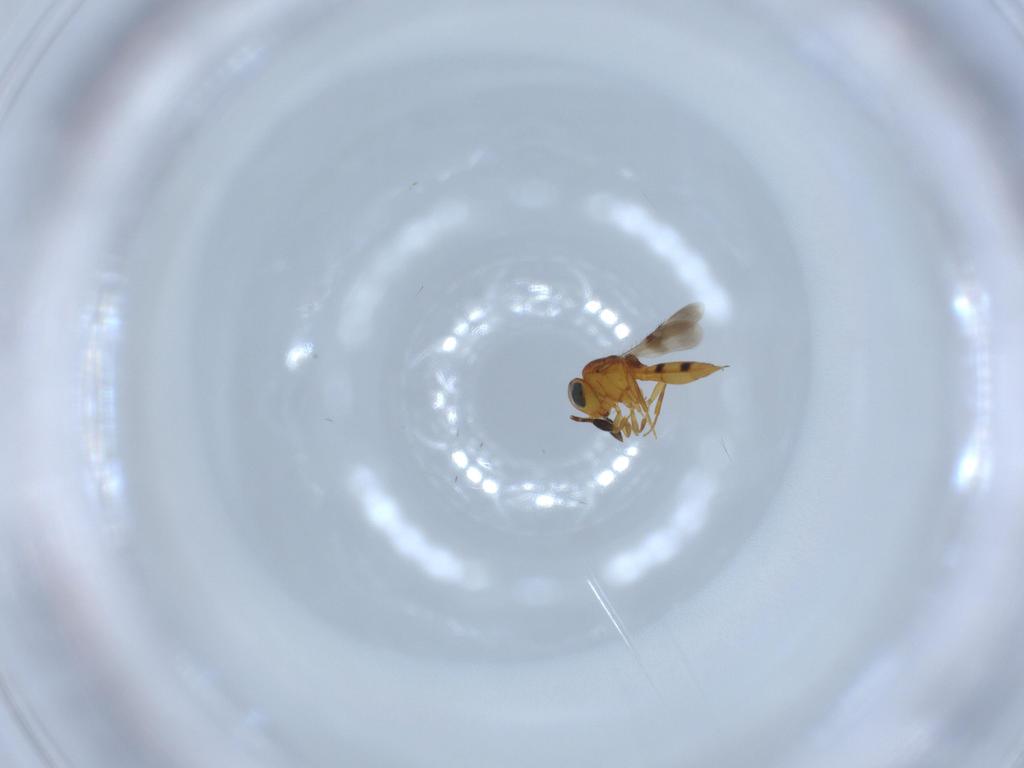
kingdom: Animalia
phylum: Arthropoda
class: Insecta
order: Hymenoptera
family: Scelionidae
